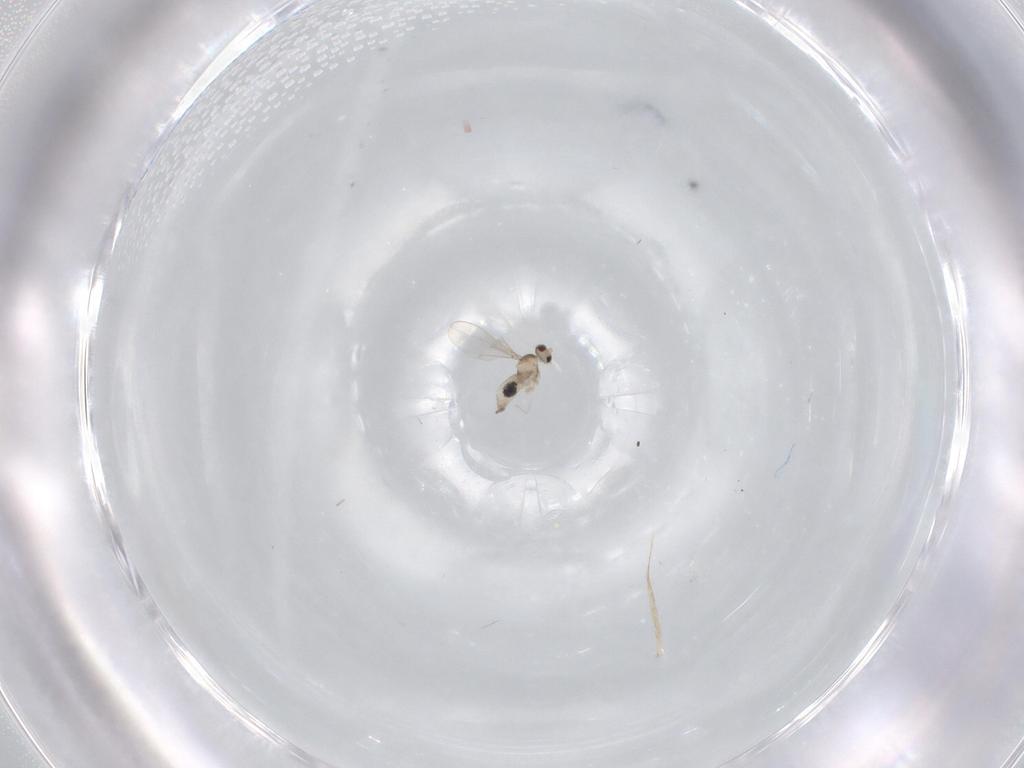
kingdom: Animalia
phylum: Arthropoda
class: Insecta
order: Diptera
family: Cecidomyiidae
